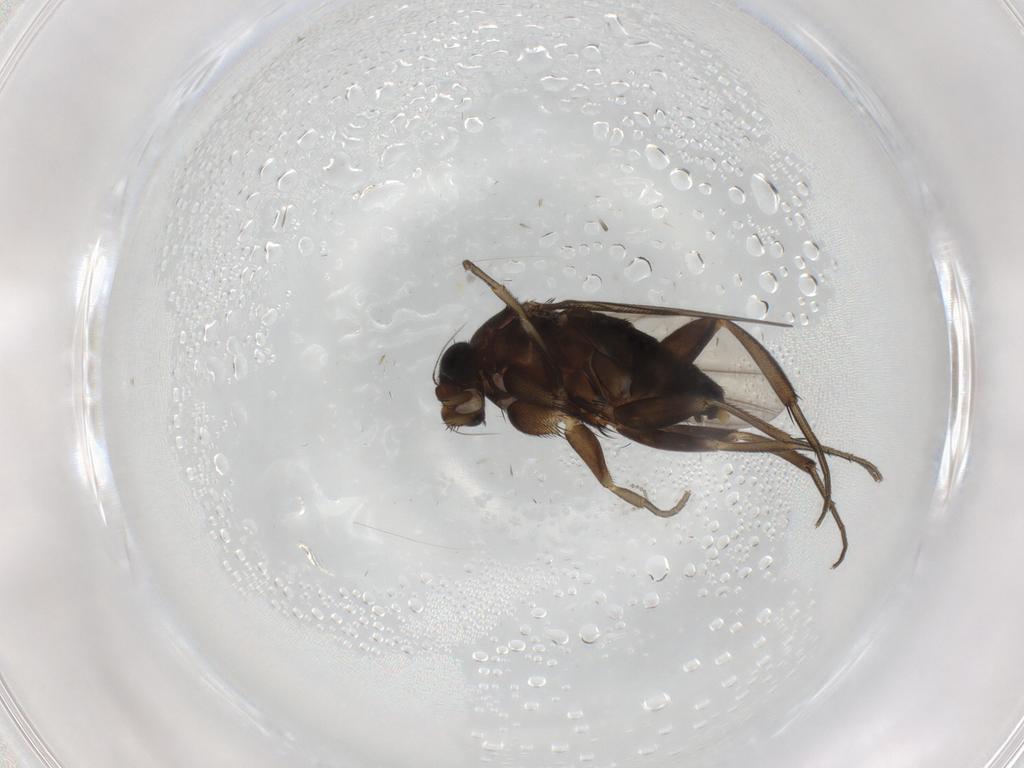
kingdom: Animalia
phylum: Arthropoda
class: Insecta
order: Diptera
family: Phoridae
